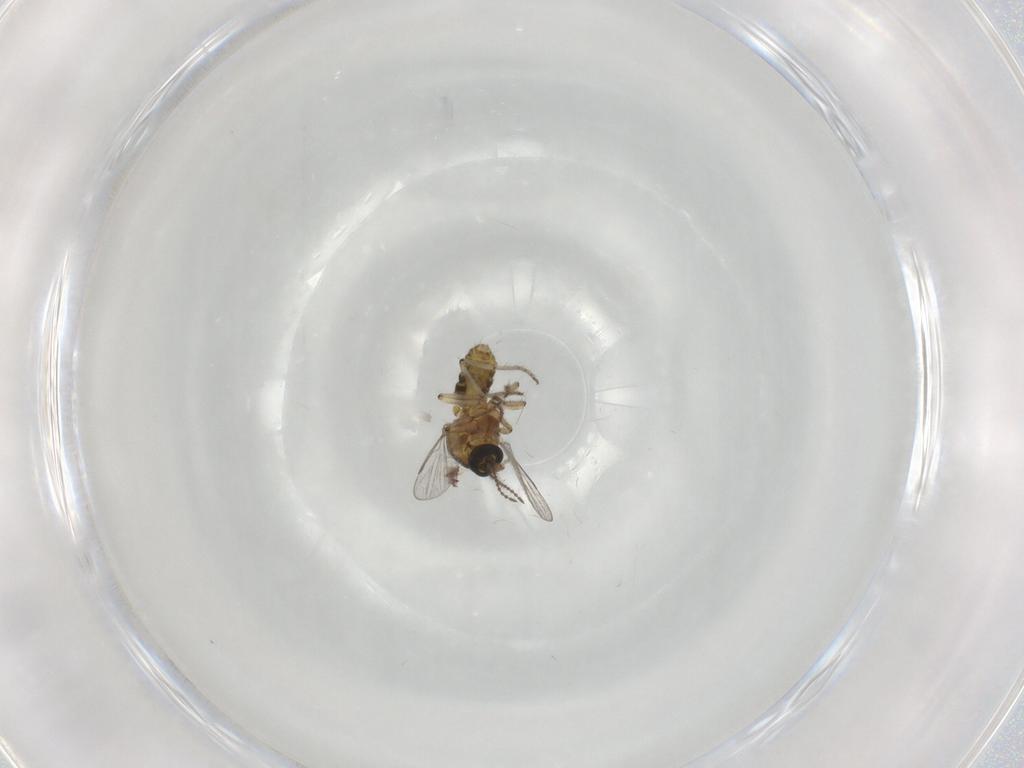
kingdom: Animalia
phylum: Arthropoda
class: Insecta
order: Diptera
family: Ceratopogonidae
